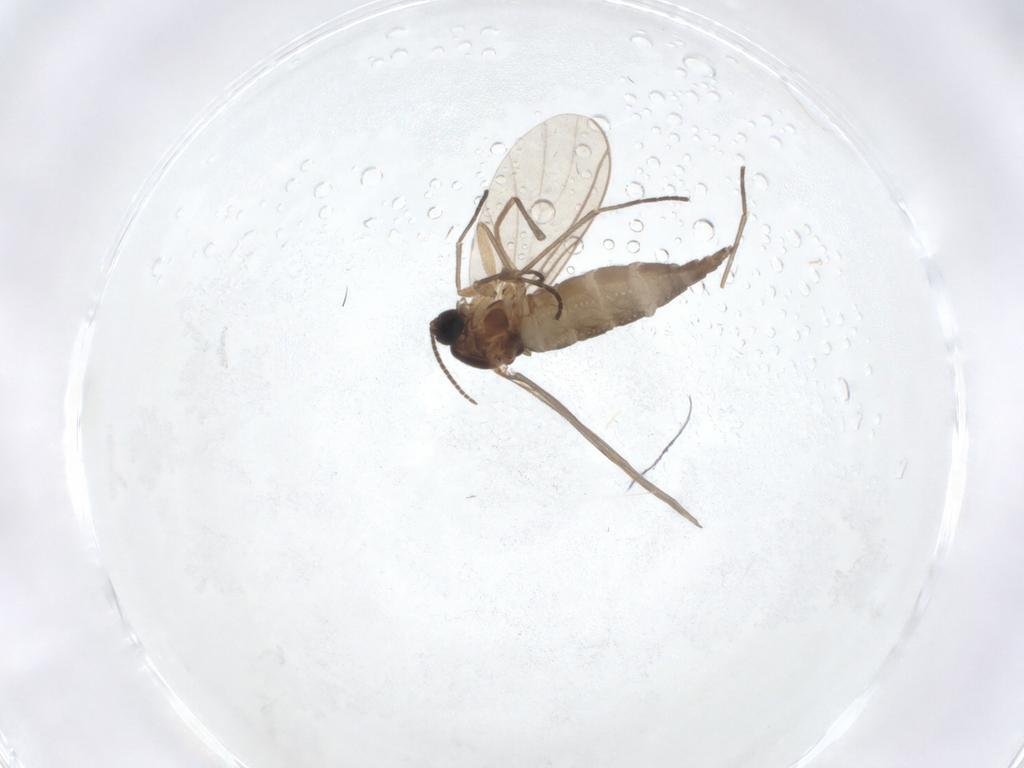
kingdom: Animalia
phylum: Arthropoda
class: Insecta
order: Diptera
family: Sciaridae
